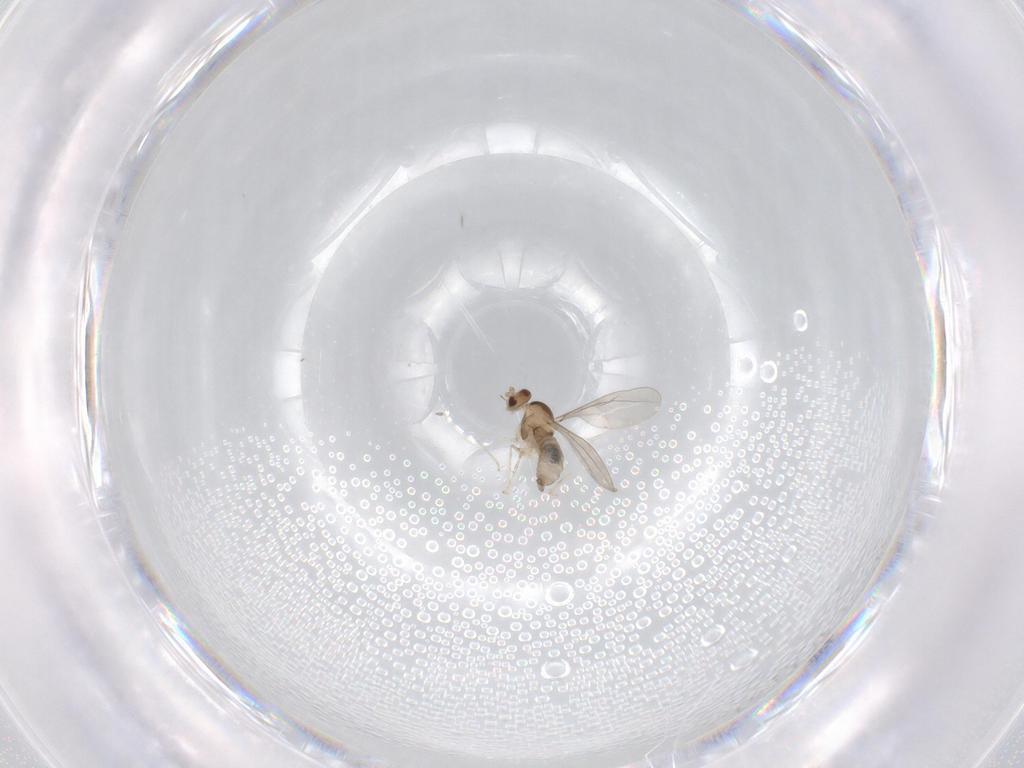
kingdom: Animalia
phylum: Arthropoda
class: Insecta
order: Diptera
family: Cecidomyiidae
